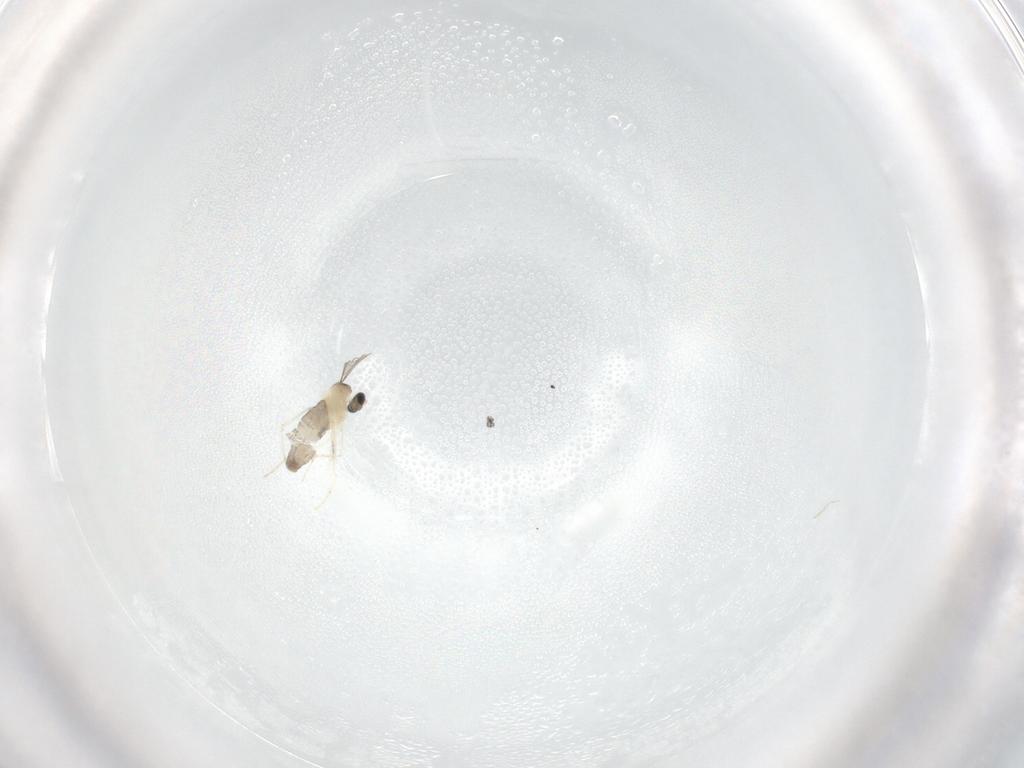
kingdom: Animalia
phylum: Arthropoda
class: Insecta
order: Diptera
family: Cecidomyiidae
